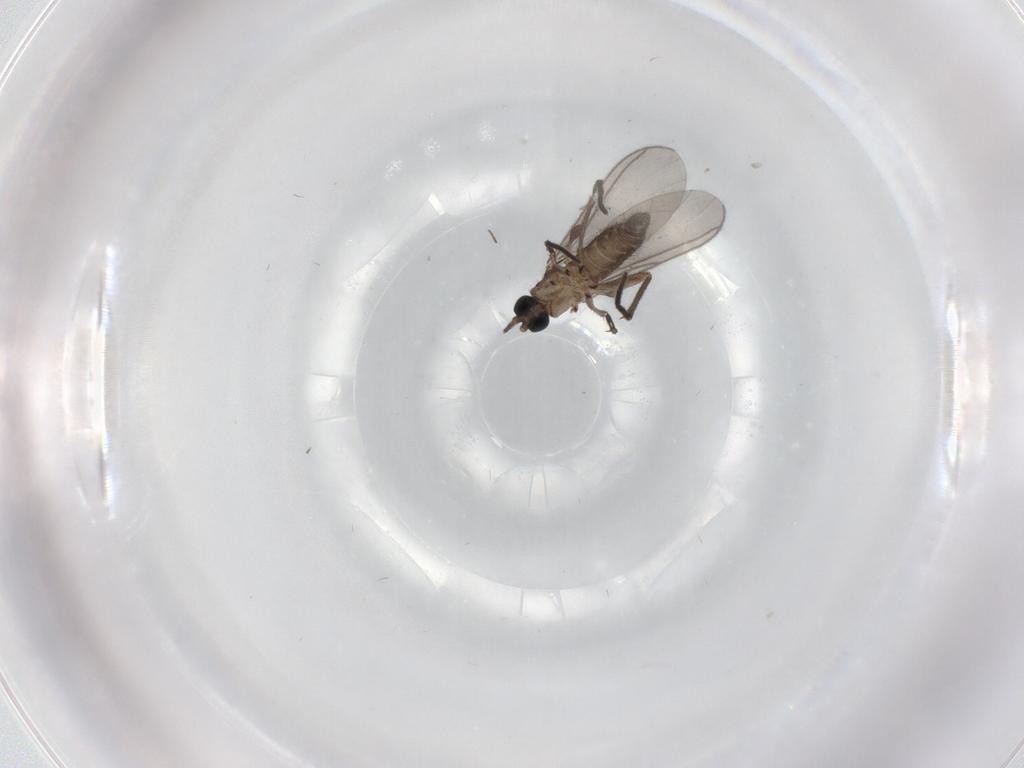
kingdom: Animalia
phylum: Arthropoda
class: Insecta
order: Diptera
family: Sciaridae
